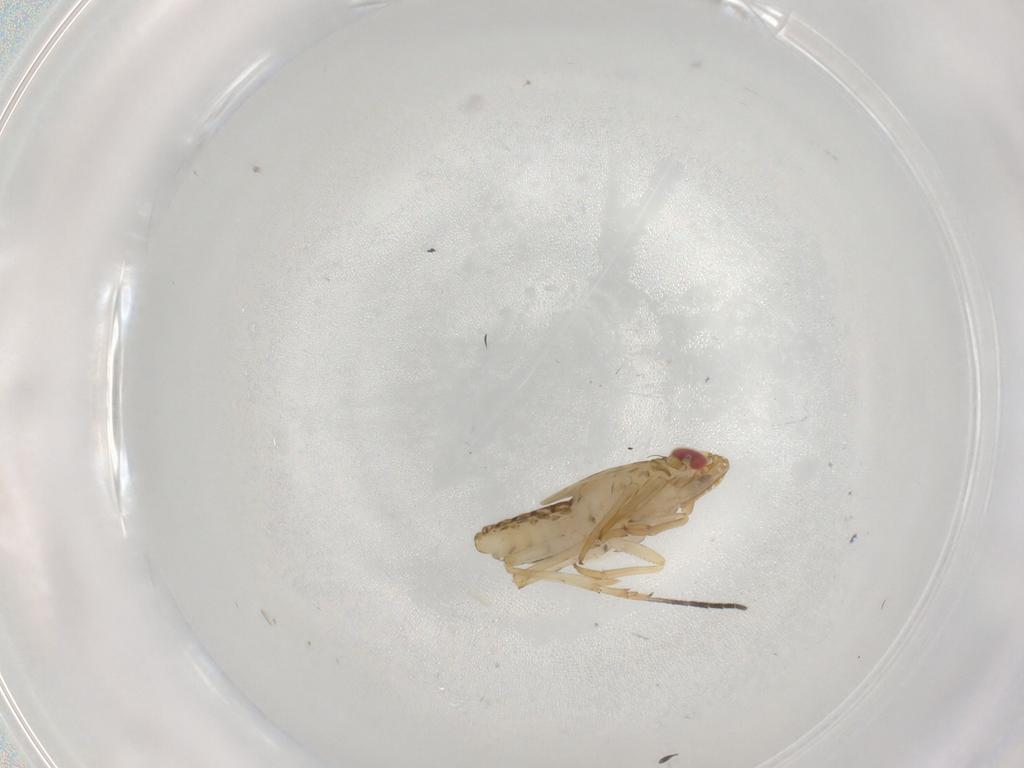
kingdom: Animalia
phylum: Arthropoda
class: Insecta
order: Hemiptera
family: Delphacidae
